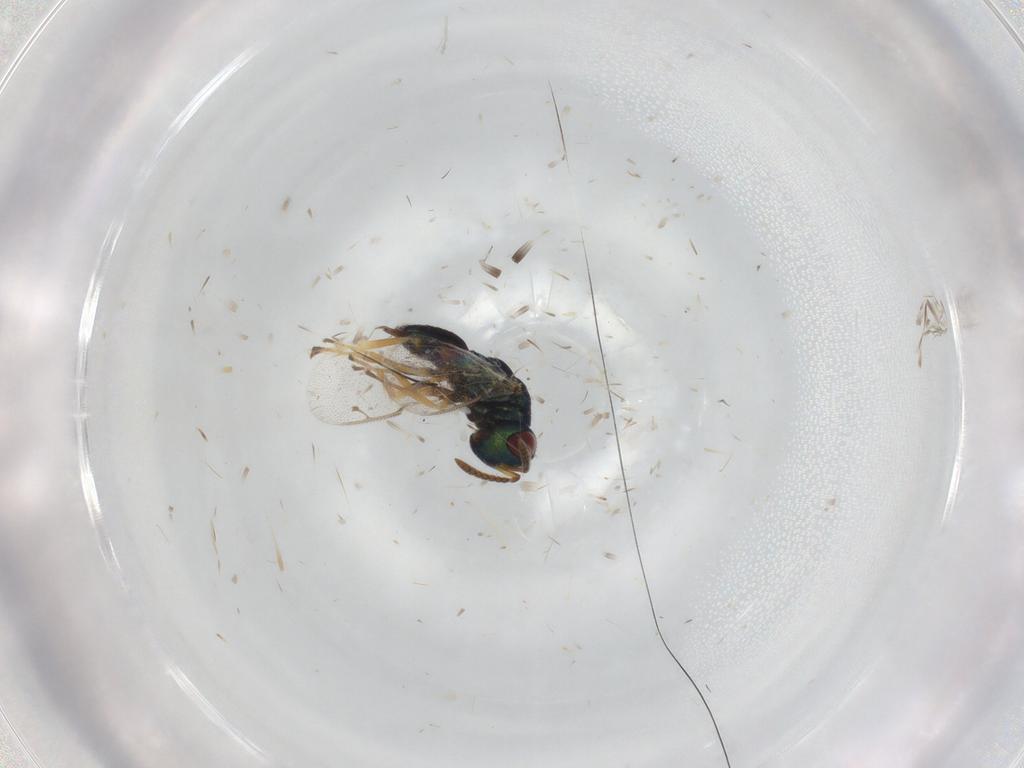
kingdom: Animalia
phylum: Arthropoda
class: Insecta
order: Hymenoptera
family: Pteromalidae
